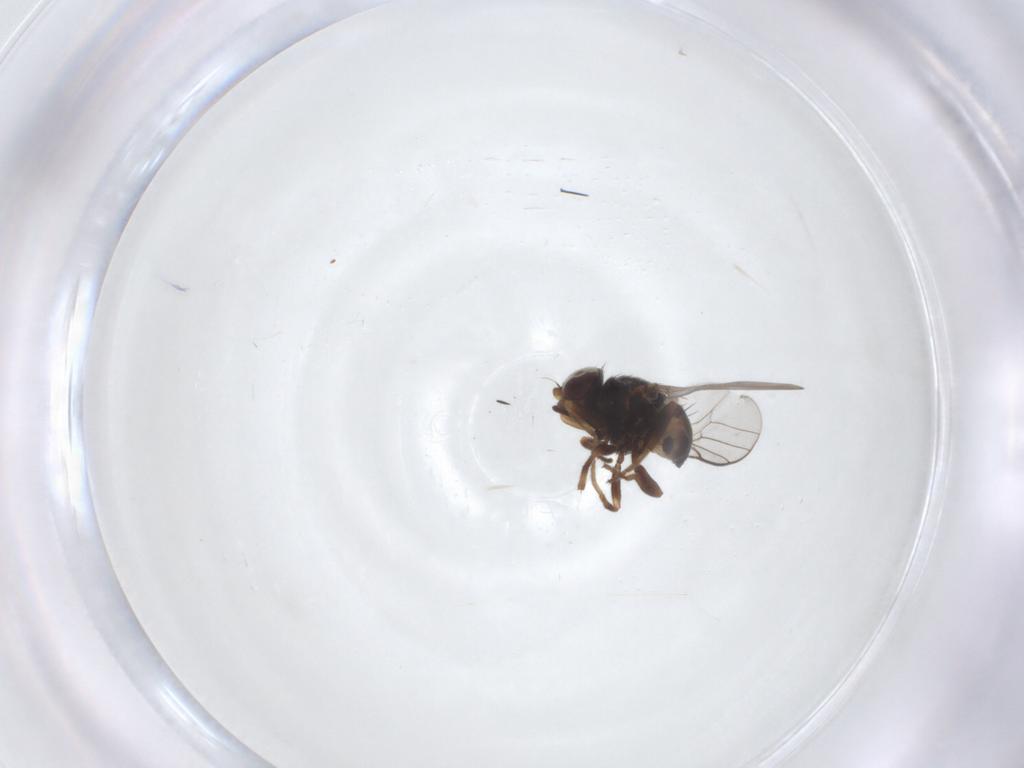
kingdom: Animalia
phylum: Arthropoda
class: Insecta
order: Diptera
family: Chloropidae
